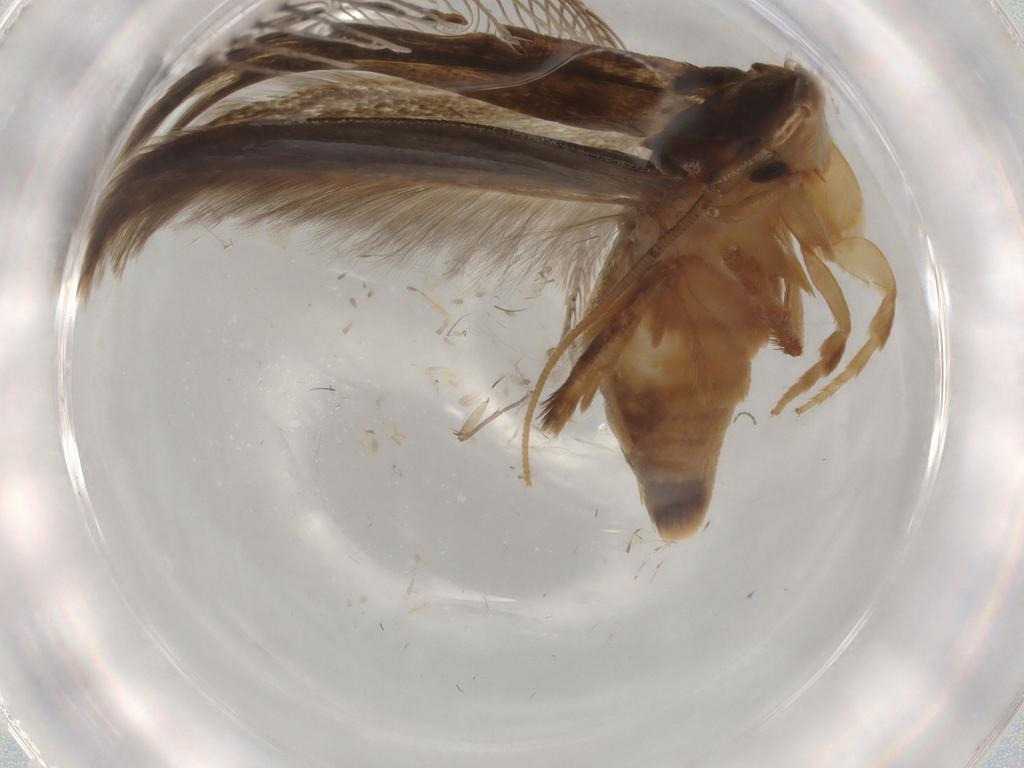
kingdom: Animalia
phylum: Arthropoda
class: Insecta
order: Lepidoptera
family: Tineidae
